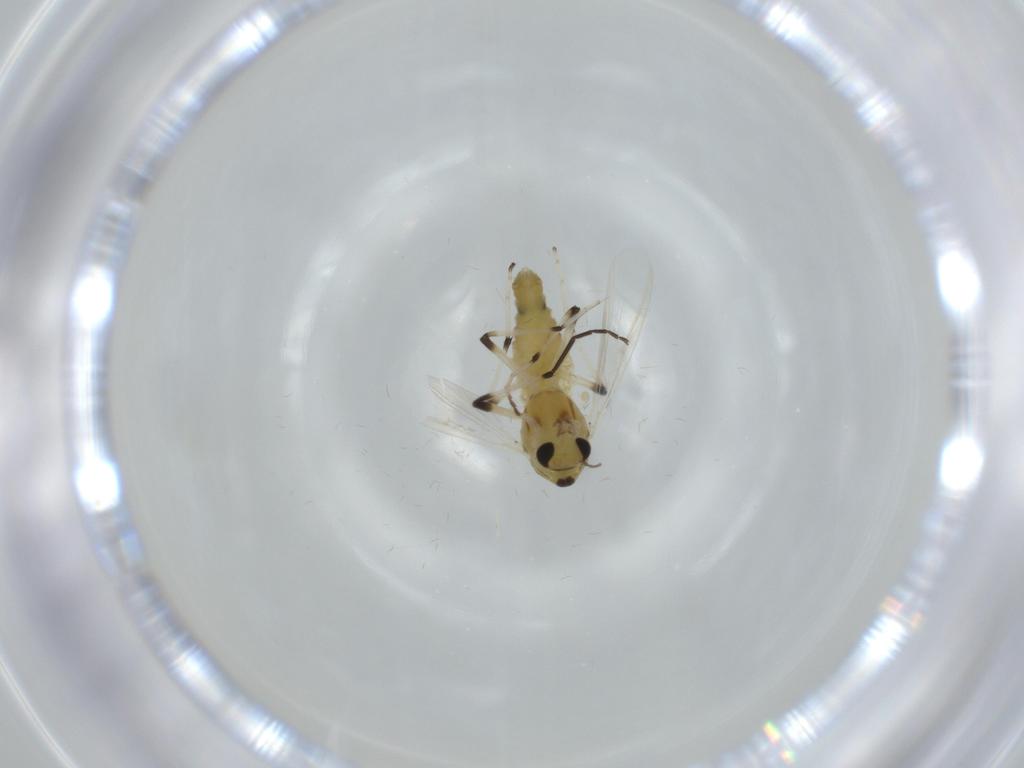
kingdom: Animalia
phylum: Arthropoda
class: Insecta
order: Diptera
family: Chironomidae
